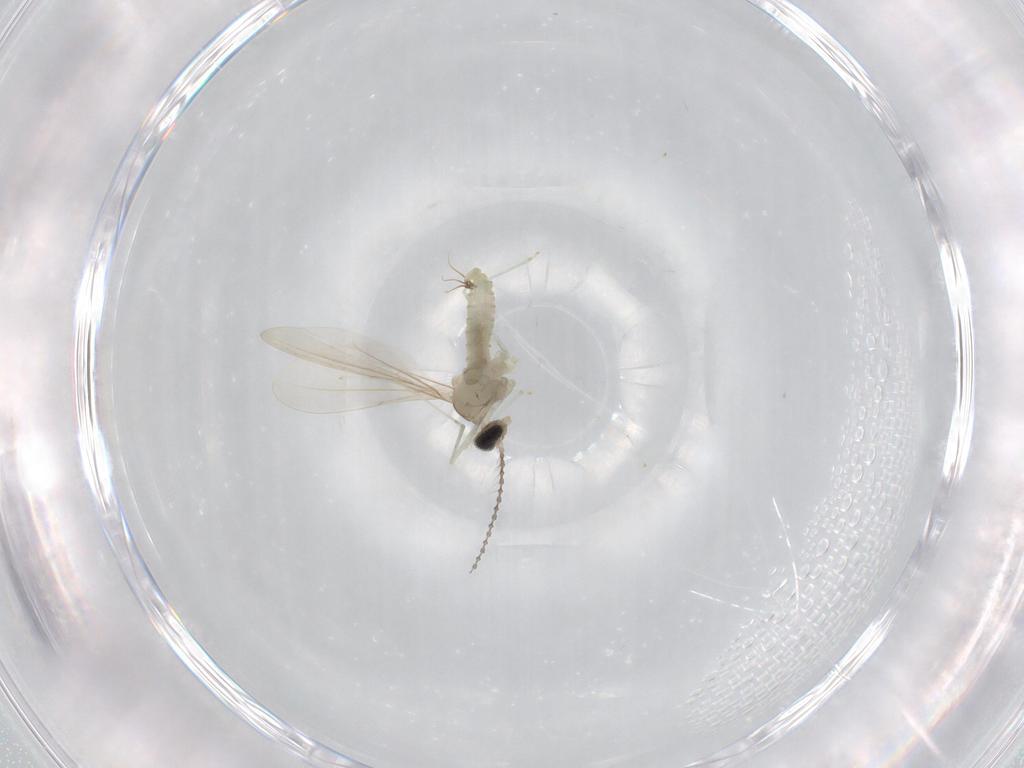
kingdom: Animalia
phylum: Arthropoda
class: Insecta
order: Diptera
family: Cecidomyiidae
